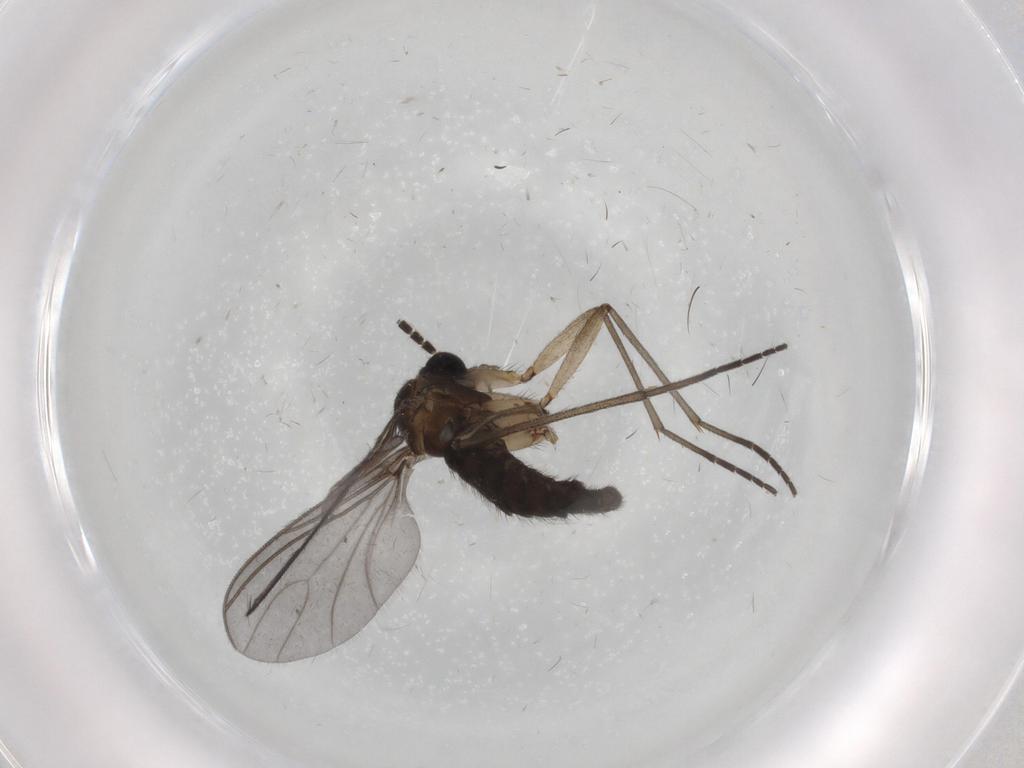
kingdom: Animalia
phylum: Arthropoda
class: Insecta
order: Diptera
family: Sciaridae
